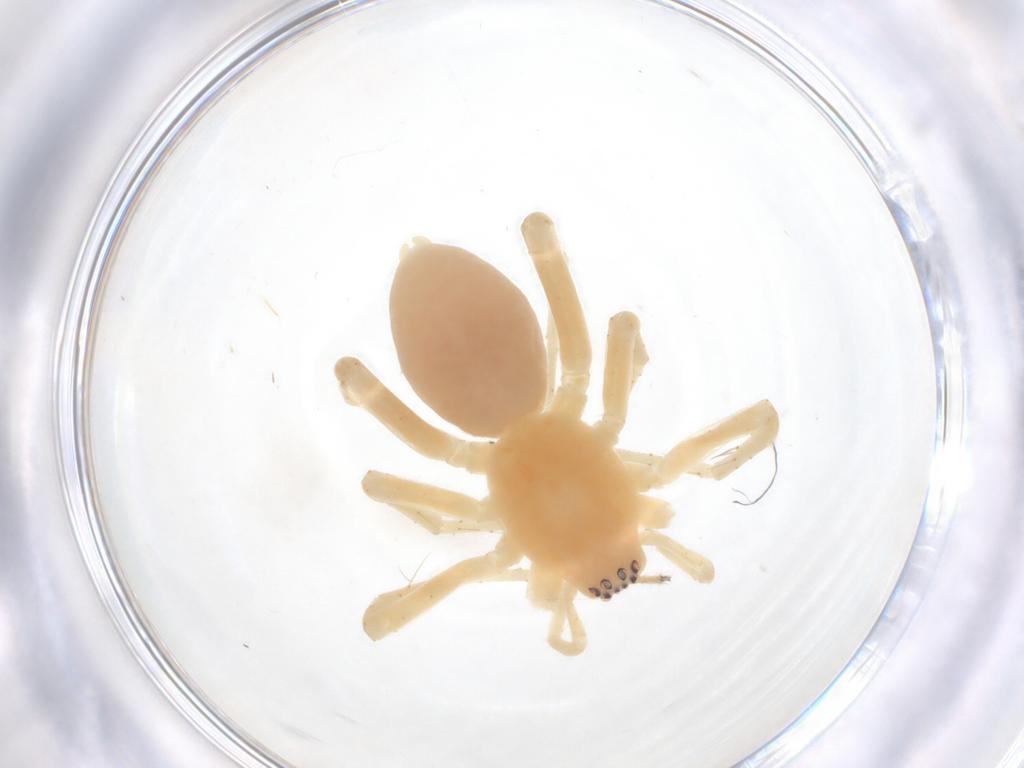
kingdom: Animalia
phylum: Arthropoda
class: Arachnida
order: Araneae
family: Anyphaenidae
